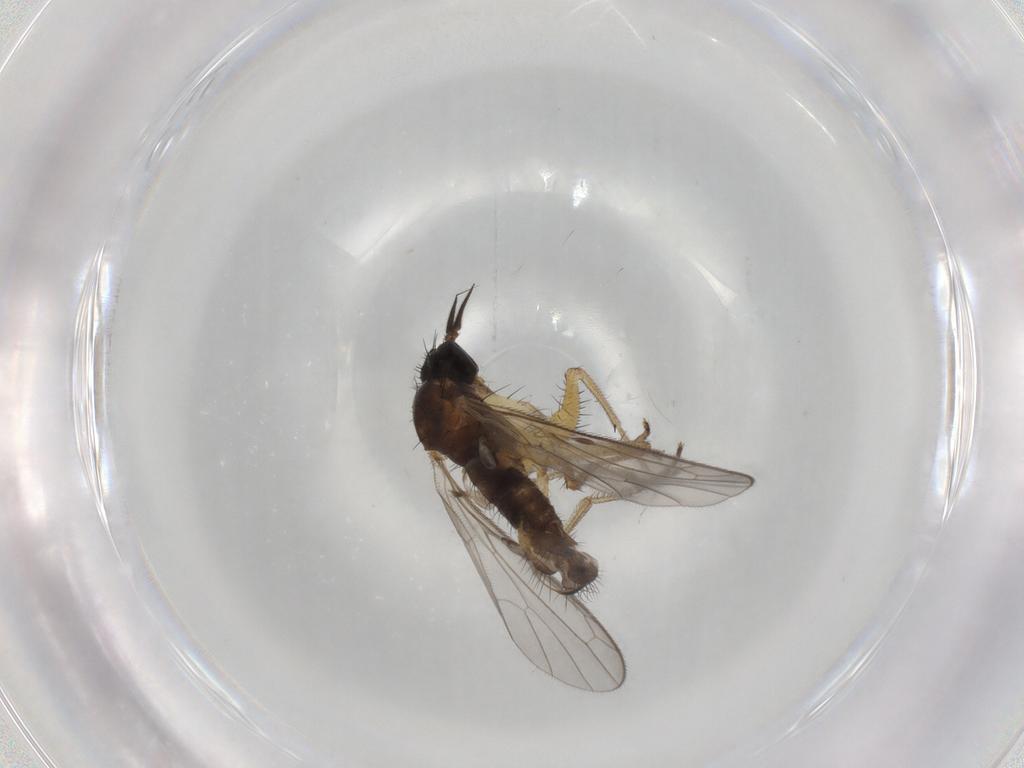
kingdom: Animalia
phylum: Arthropoda
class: Insecta
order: Diptera
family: Chironomidae
